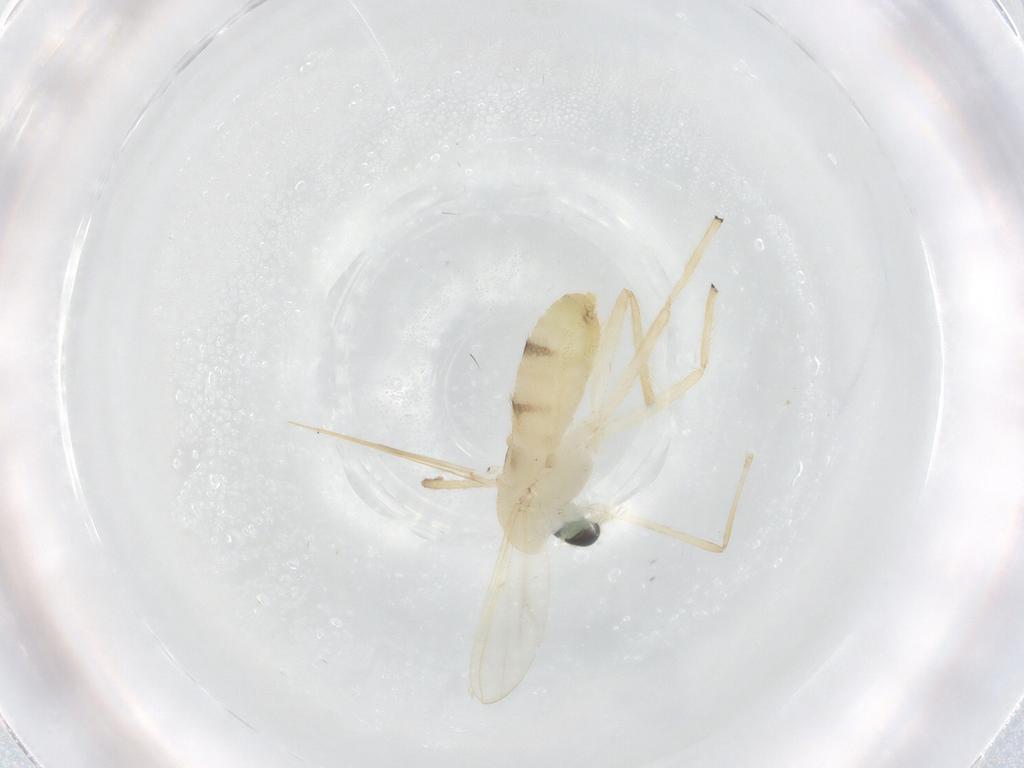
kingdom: Animalia
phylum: Arthropoda
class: Insecta
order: Diptera
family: Chironomidae
